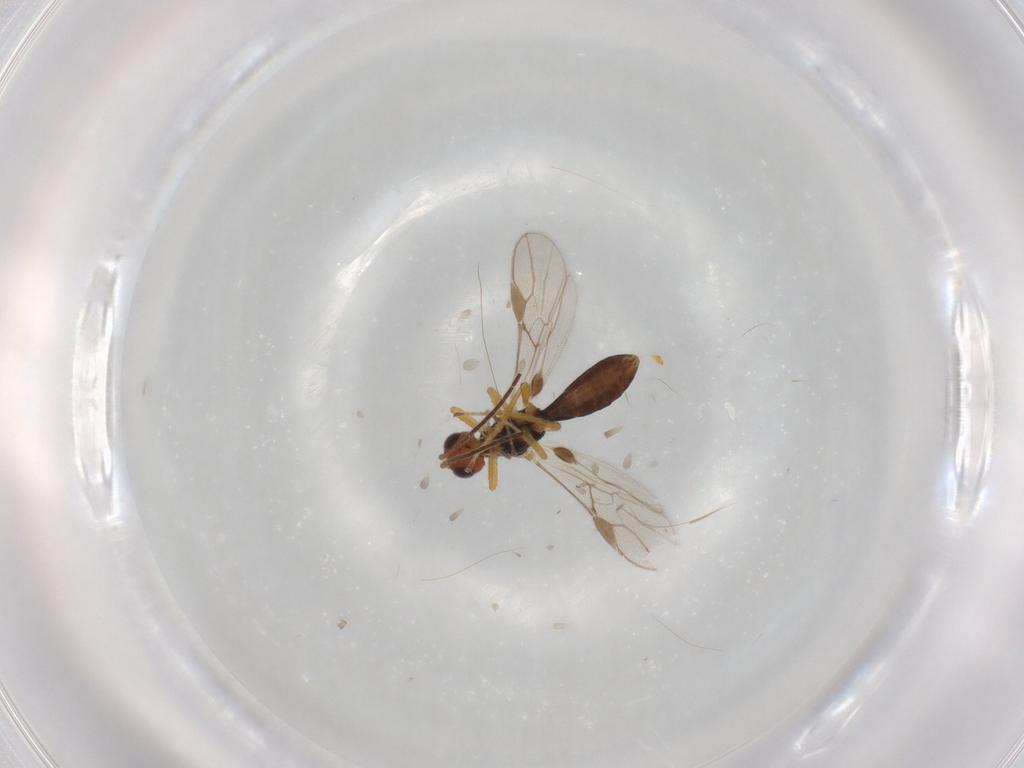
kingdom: Animalia
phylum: Arthropoda
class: Insecta
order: Hymenoptera
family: Braconidae
